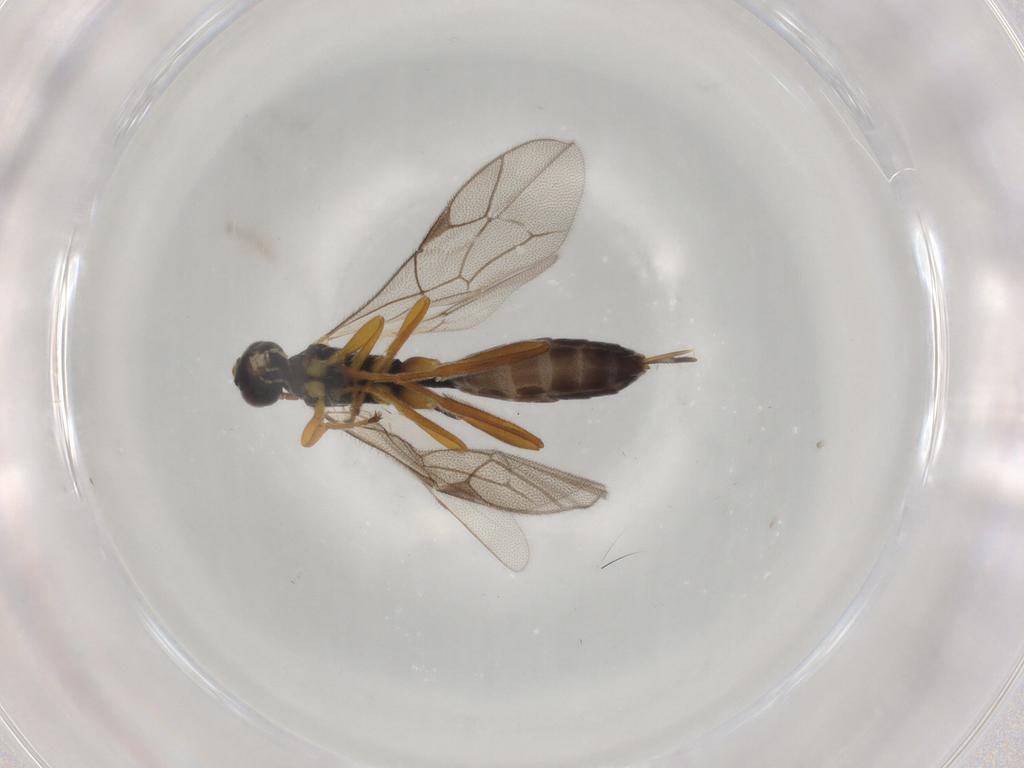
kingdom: Animalia
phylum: Arthropoda
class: Insecta
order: Hymenoptera
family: Ichneumonidae
